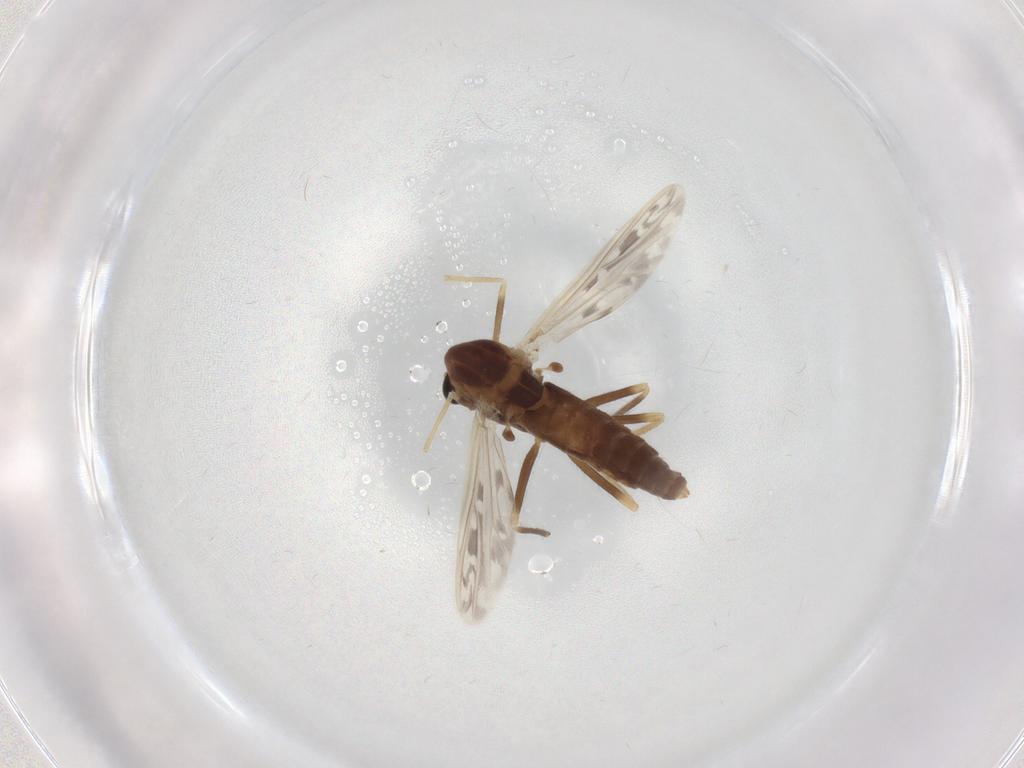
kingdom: Animalia
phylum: Arthropoda
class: Insecta
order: Diptera
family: Chironomidae
